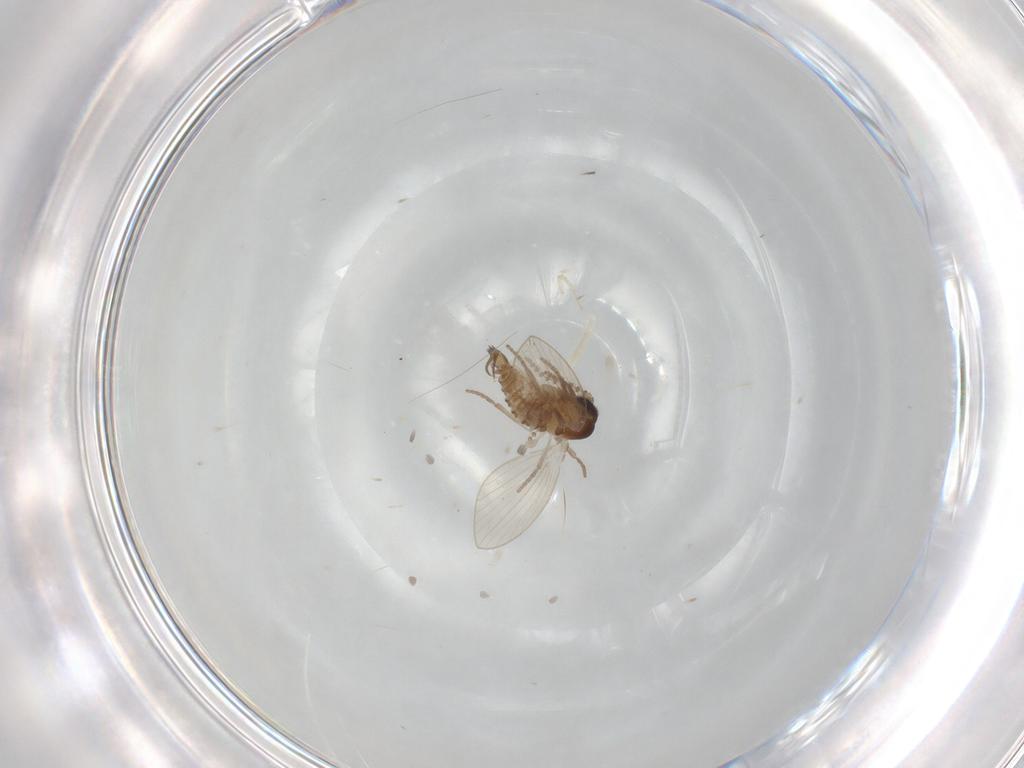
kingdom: Animalia
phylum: Arthropoda
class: Insecta
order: Diptera
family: Psychodidae
